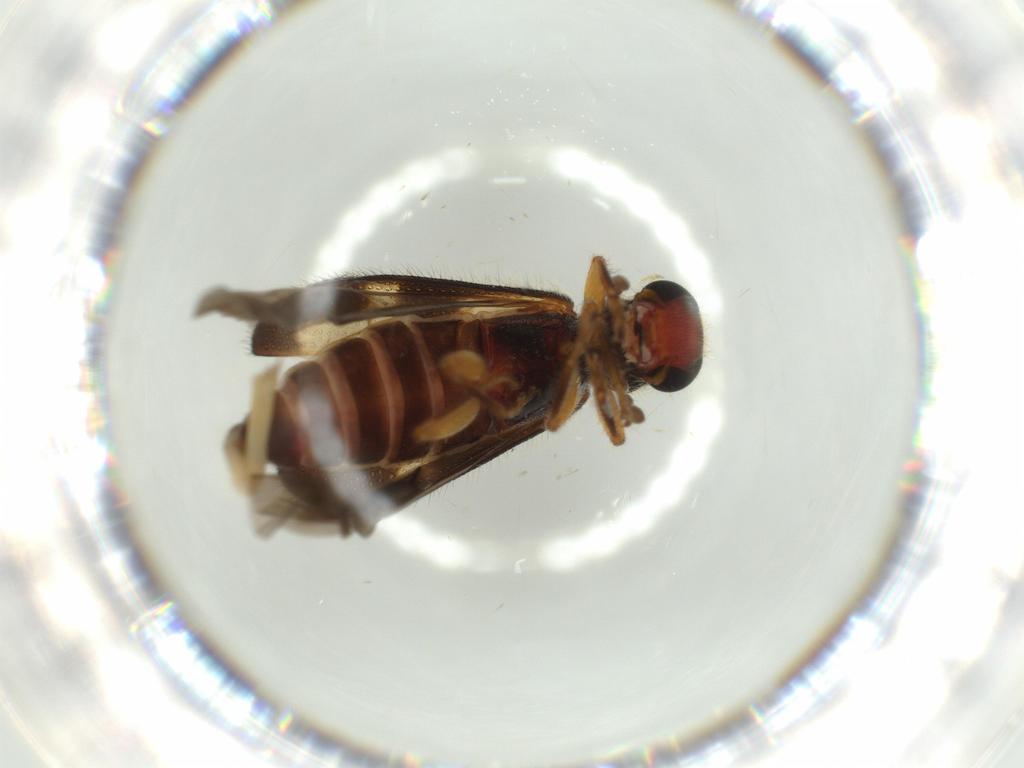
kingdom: Animalia
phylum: Arthropoda
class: Insecta
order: Coleoptera
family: Cleridae
